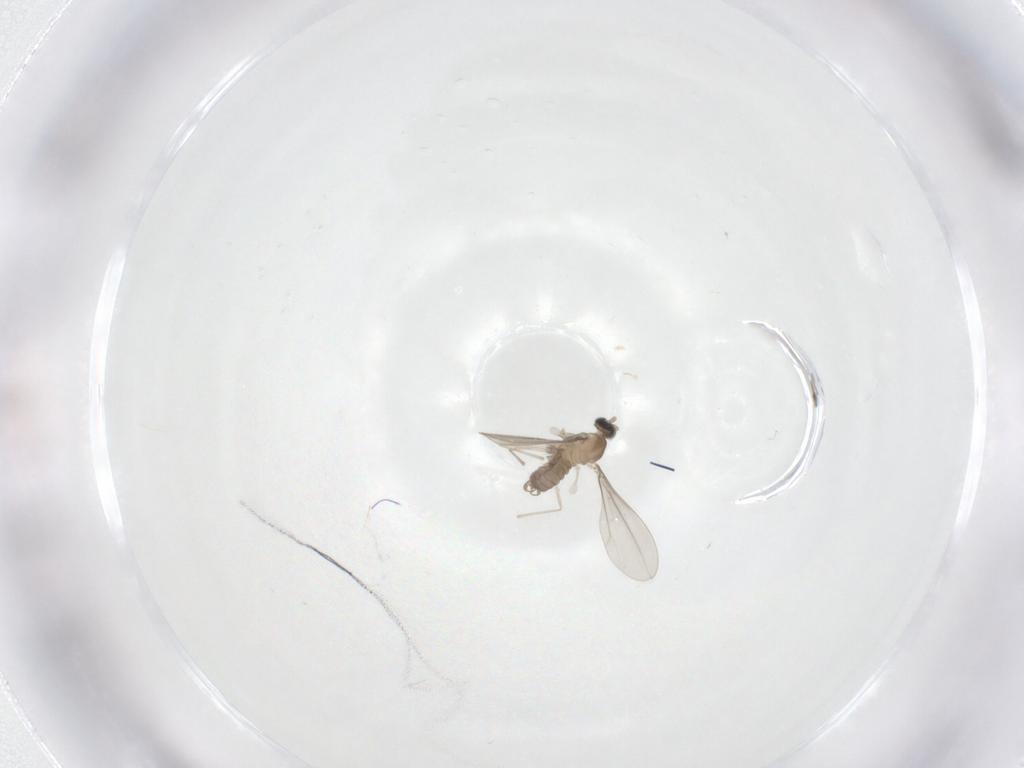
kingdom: Animalia
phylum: Arthropoda
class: Insecta
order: Diptera
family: Cecidomyiidae
